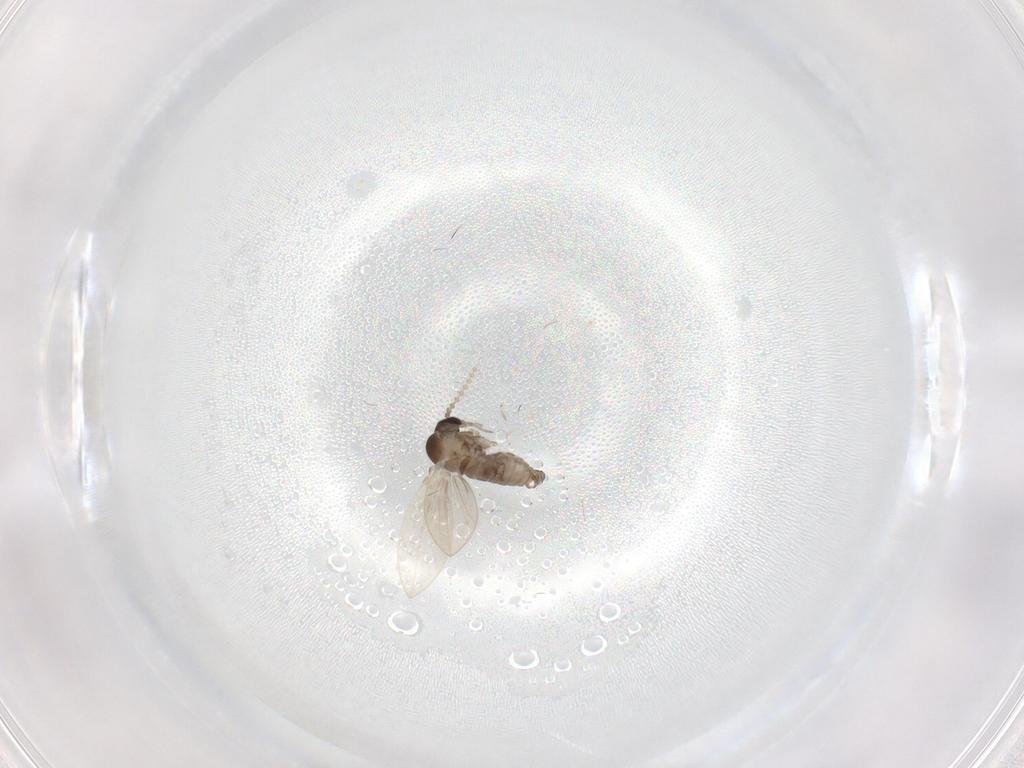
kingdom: Animalia
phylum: Arthropoda
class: Insecta
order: Diptera
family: Psychodidae
